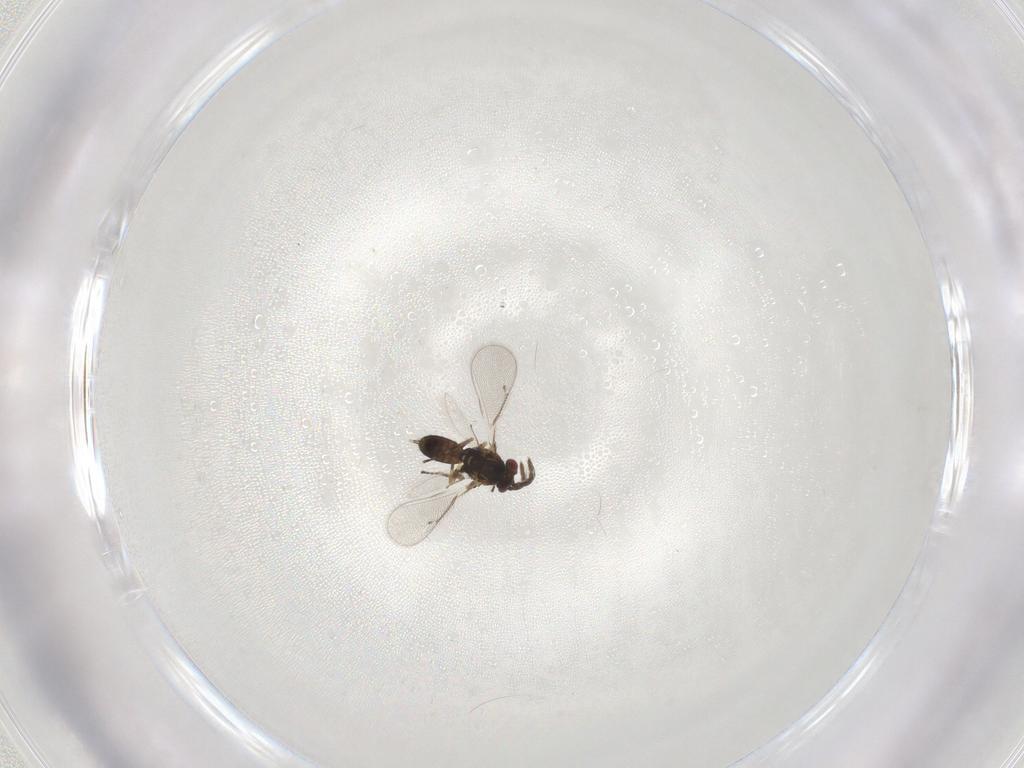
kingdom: Animalia
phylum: Arthropoda
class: Insecta
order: Hymenoptera
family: Eulophidae
